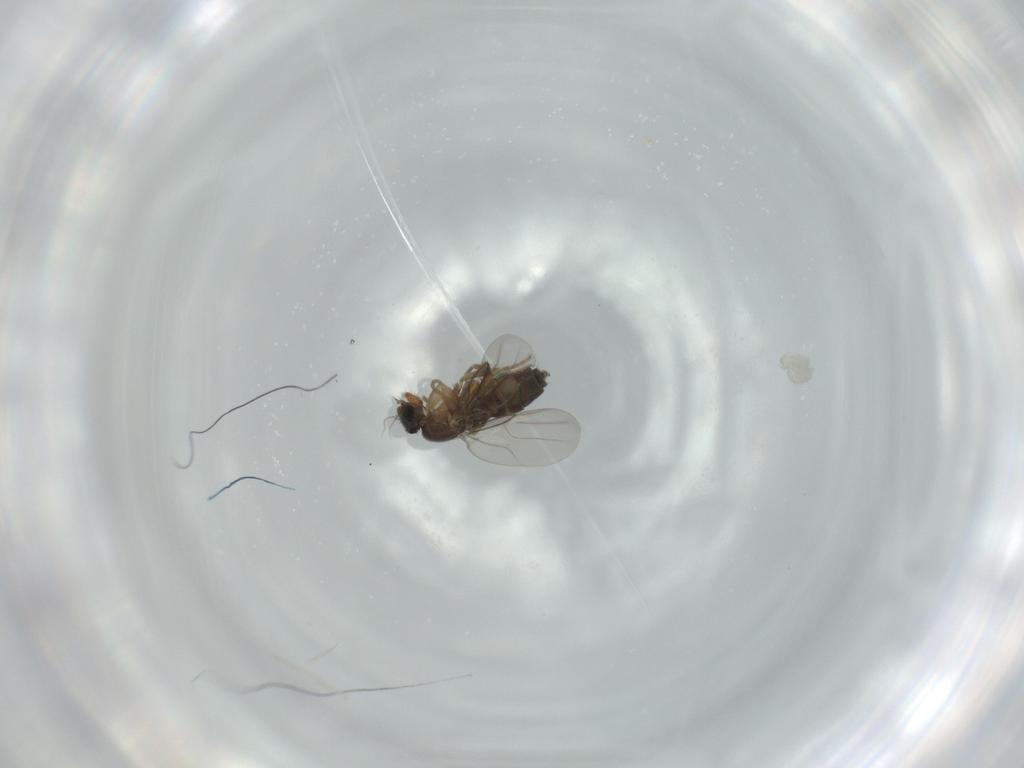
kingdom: Animalia
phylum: Arthropoda
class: Insecta
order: Diptera
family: Phoridae
